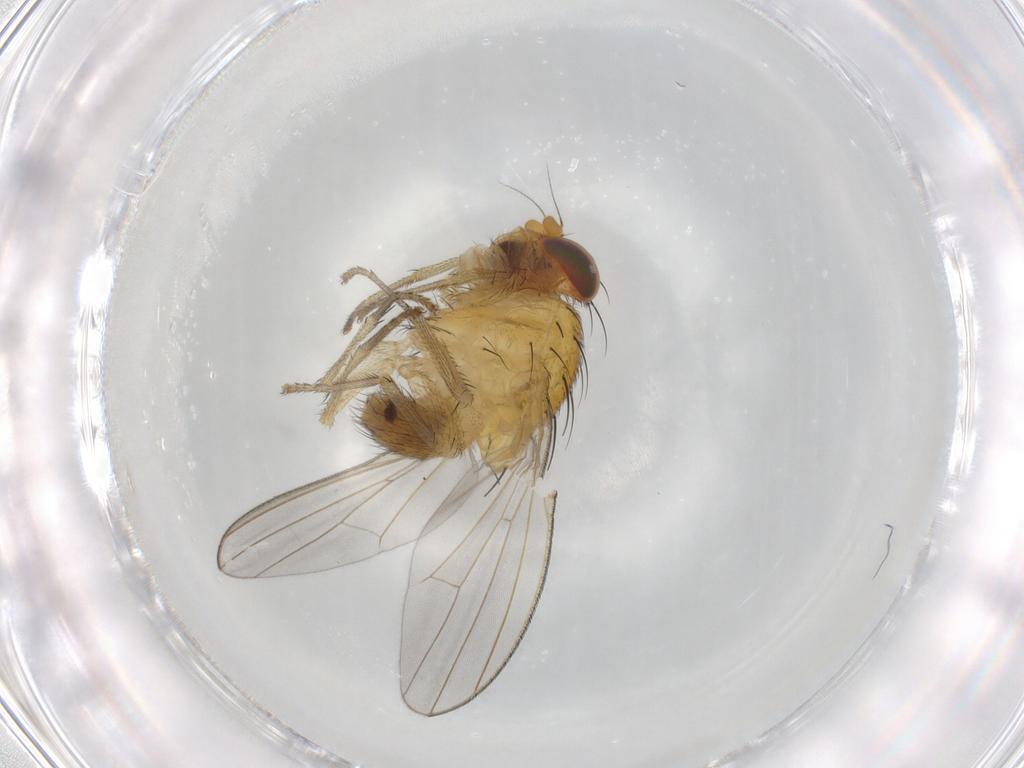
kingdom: Animalia
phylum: Arthropoda
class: Insecta
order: Diptera
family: Lauxaniidae
